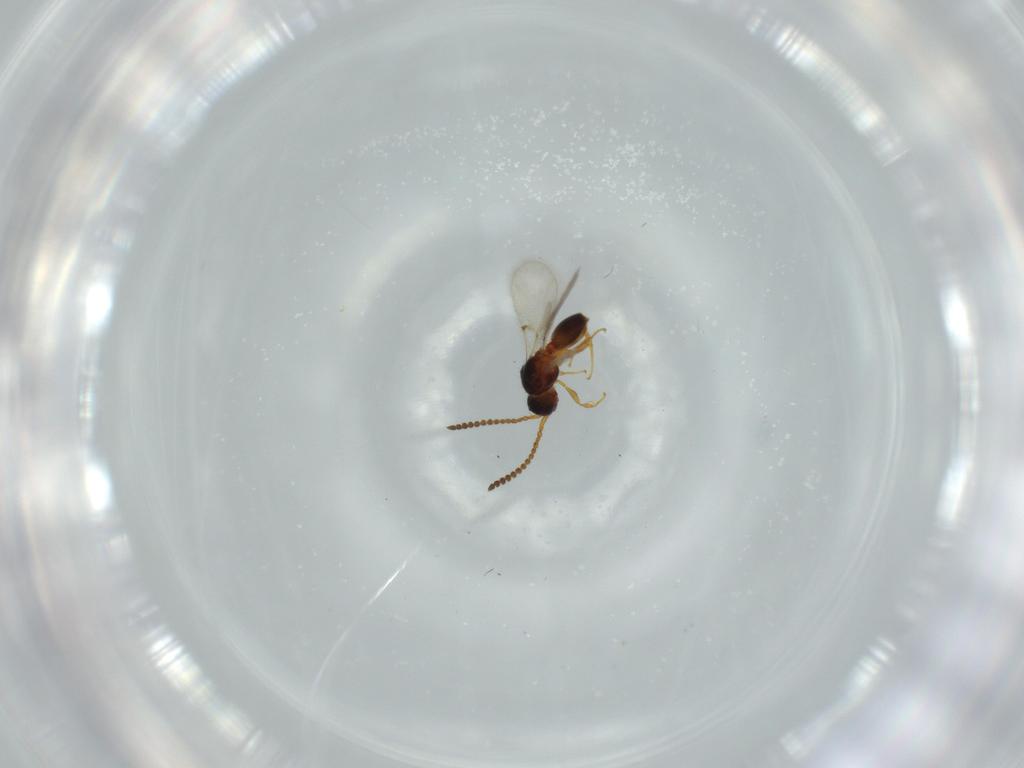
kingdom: Animalia
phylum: Arthropoda
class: Insecta
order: Hymenoptera
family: Diapriidae
